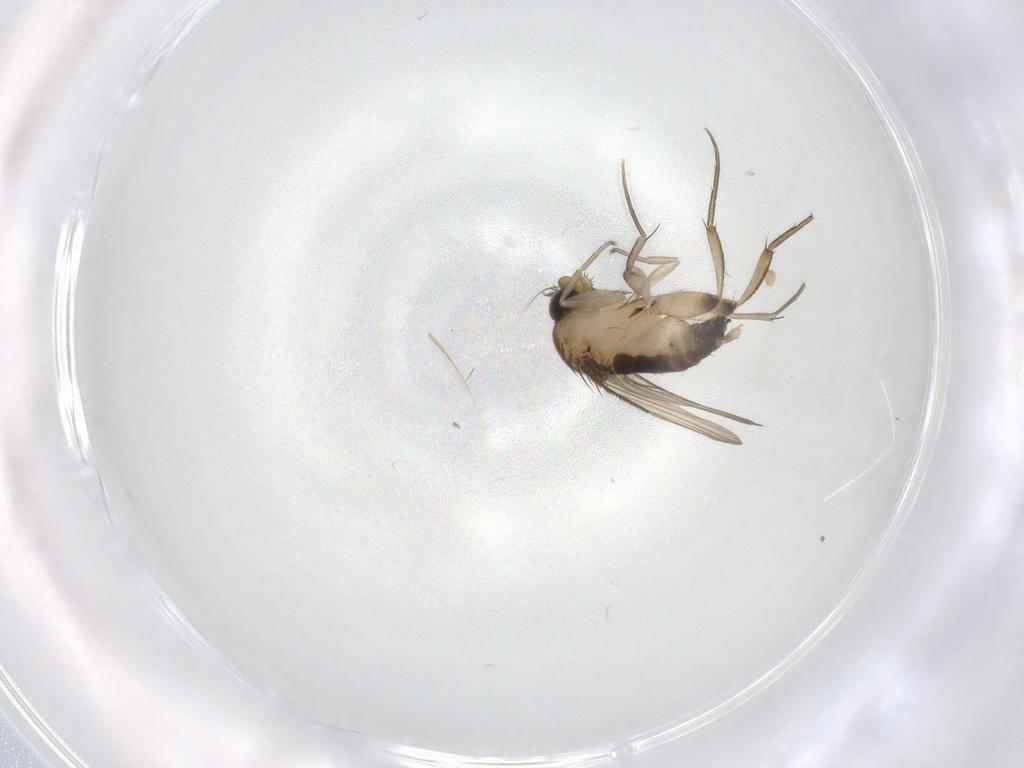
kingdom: Animalia
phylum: Arthropoda
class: Insecta
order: Diptera
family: Phoridae
